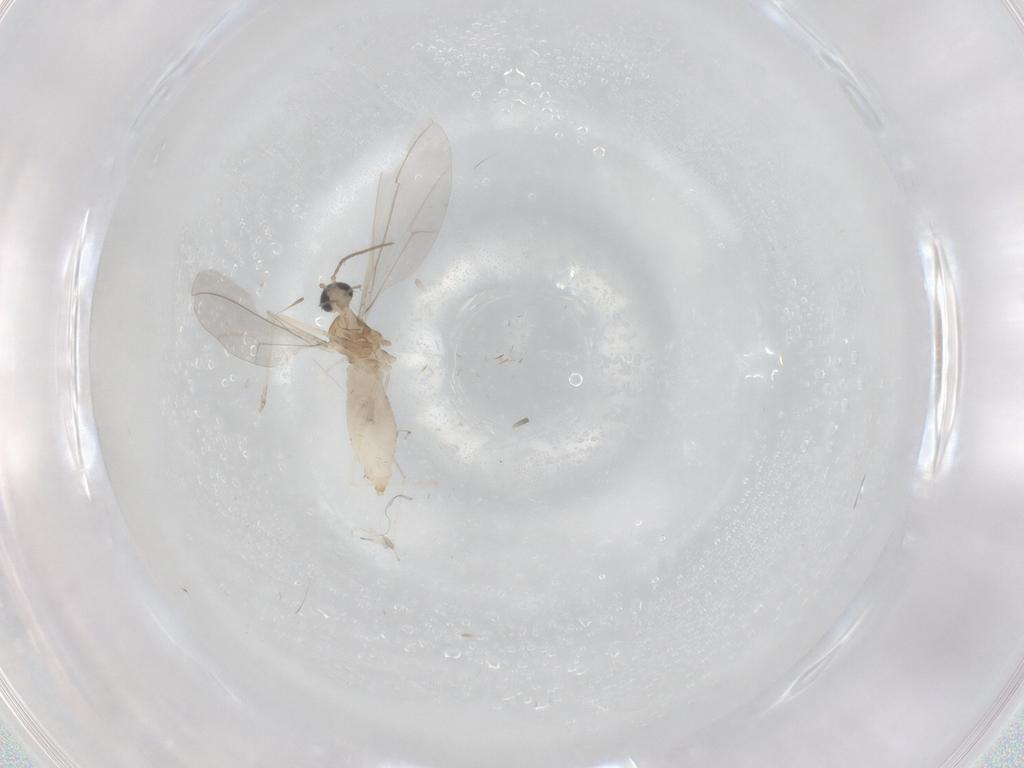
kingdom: Animalia
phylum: Arthropoda
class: Insecta
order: Diptera
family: Cecidomyiidae
